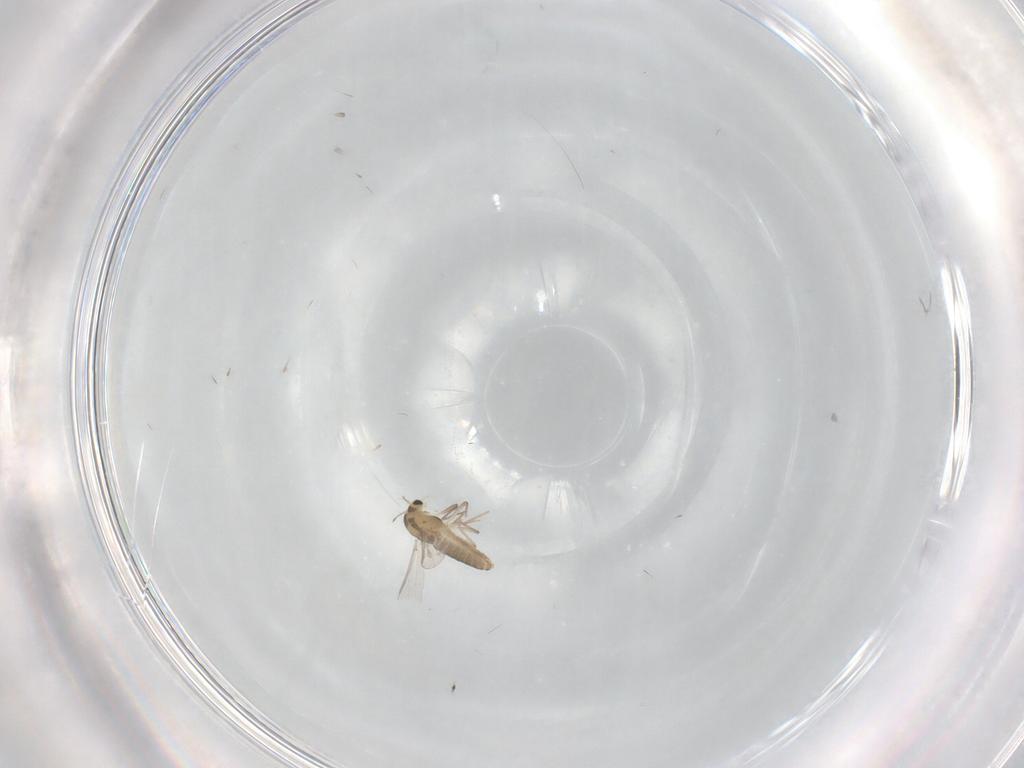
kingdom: Animalia
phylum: Arthropoda
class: Insecta
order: Diptera
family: Chironomidae
